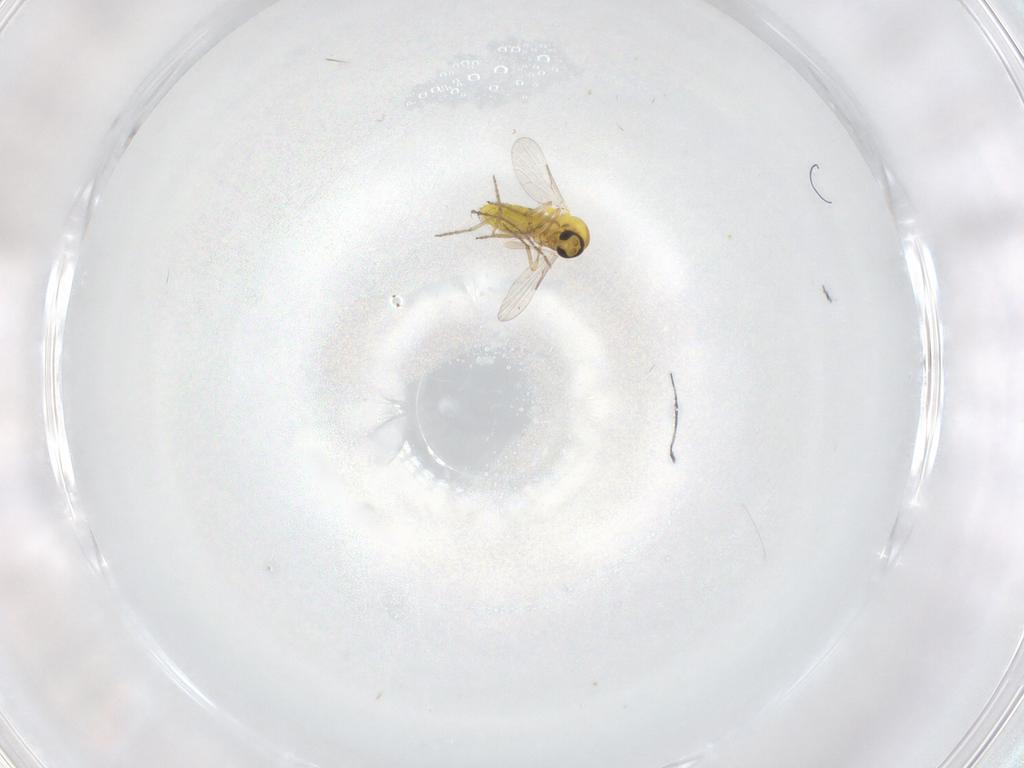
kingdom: Animalia
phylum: Arthropoda
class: Insecta
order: Diptera
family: Ceratopogonidae
